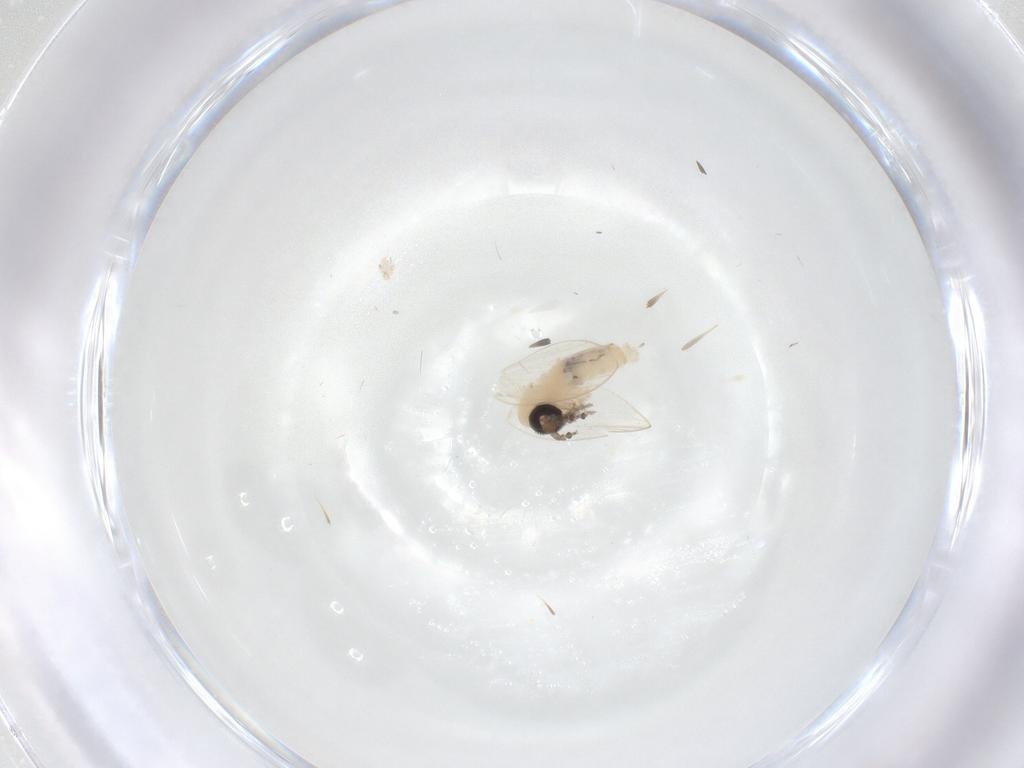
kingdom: Animalia
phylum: Arthropoda
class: Insecta
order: Diptera
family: Psychodidae
